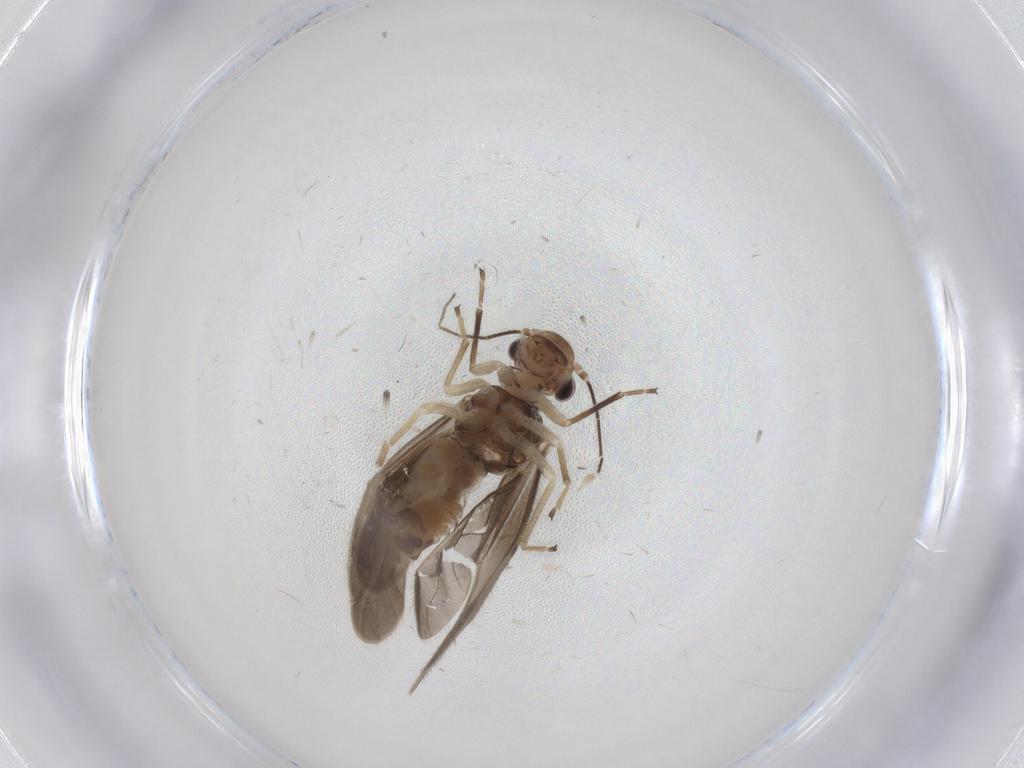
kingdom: Animalia
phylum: Arthropoda
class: Insecta
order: Psocodea
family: Caeciliusidae
